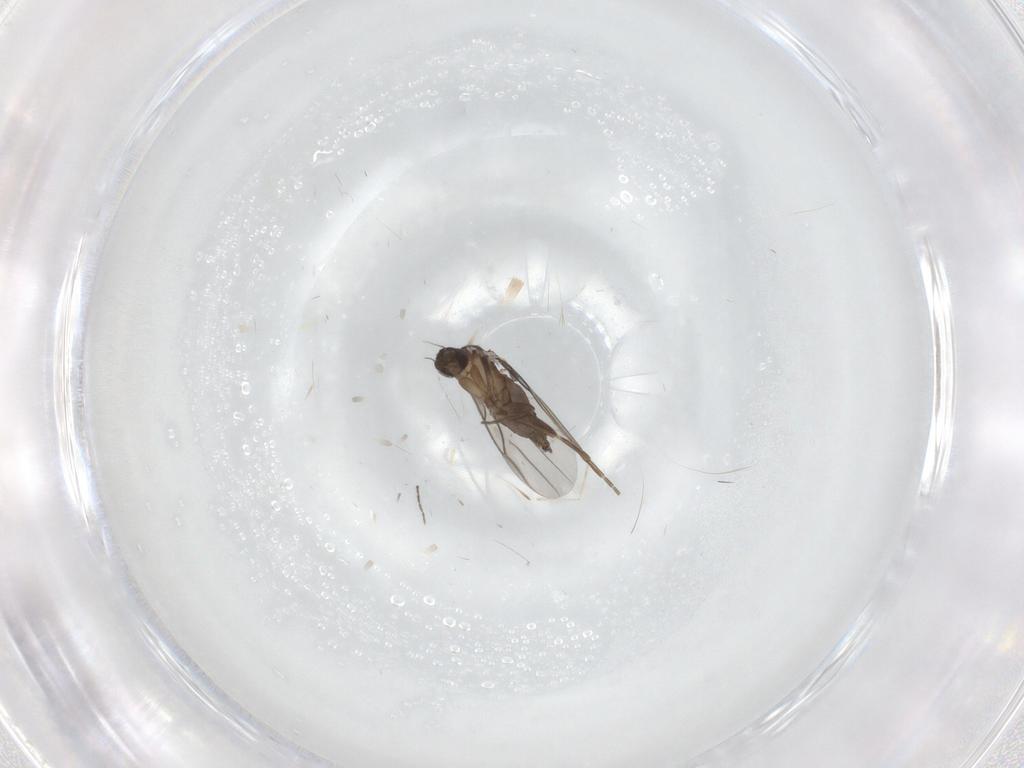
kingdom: Animalia
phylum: Arthropoda
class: Insecta
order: Diptera
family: Ceratopogonidae
